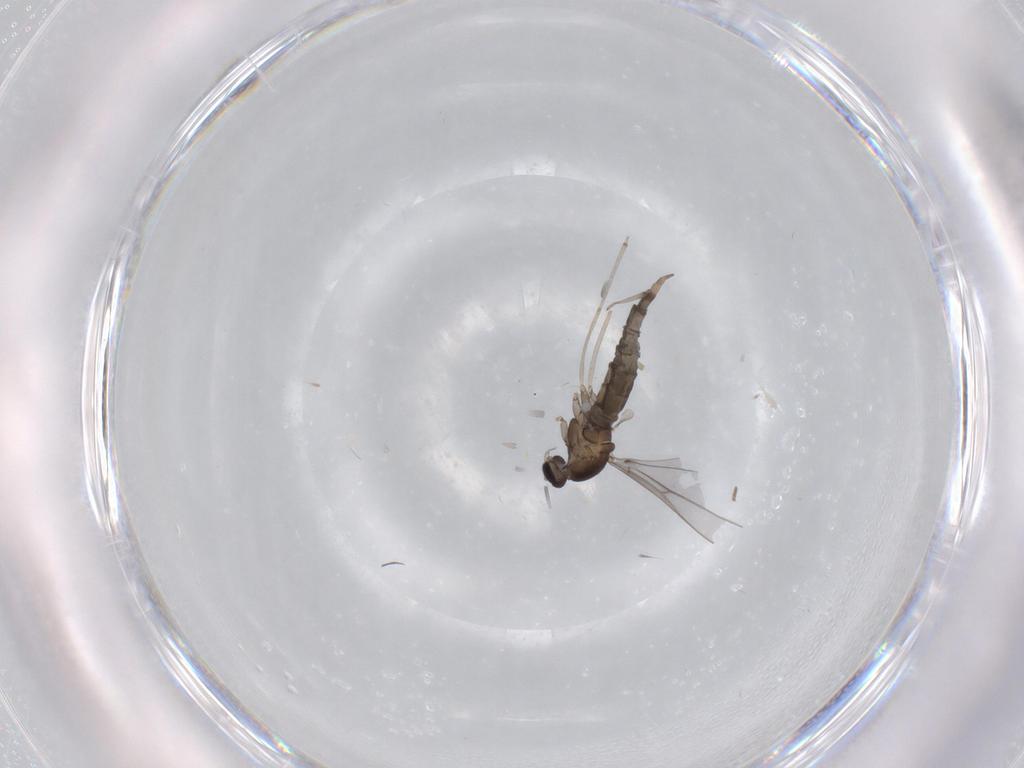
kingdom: Animalia
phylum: Arthropoda
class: Insecta
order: Diptera
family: Cecidomyiidae
